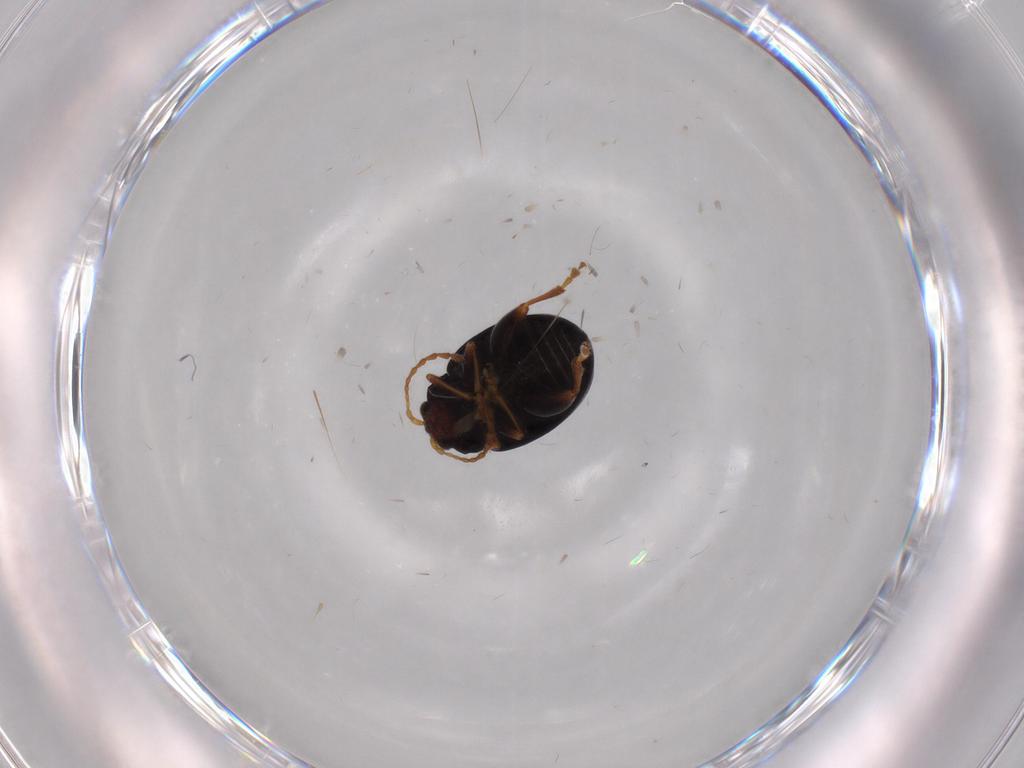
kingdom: Animalia
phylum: Arthropoda
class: Insecta
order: Coleoptera
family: Ptilodactylidae
